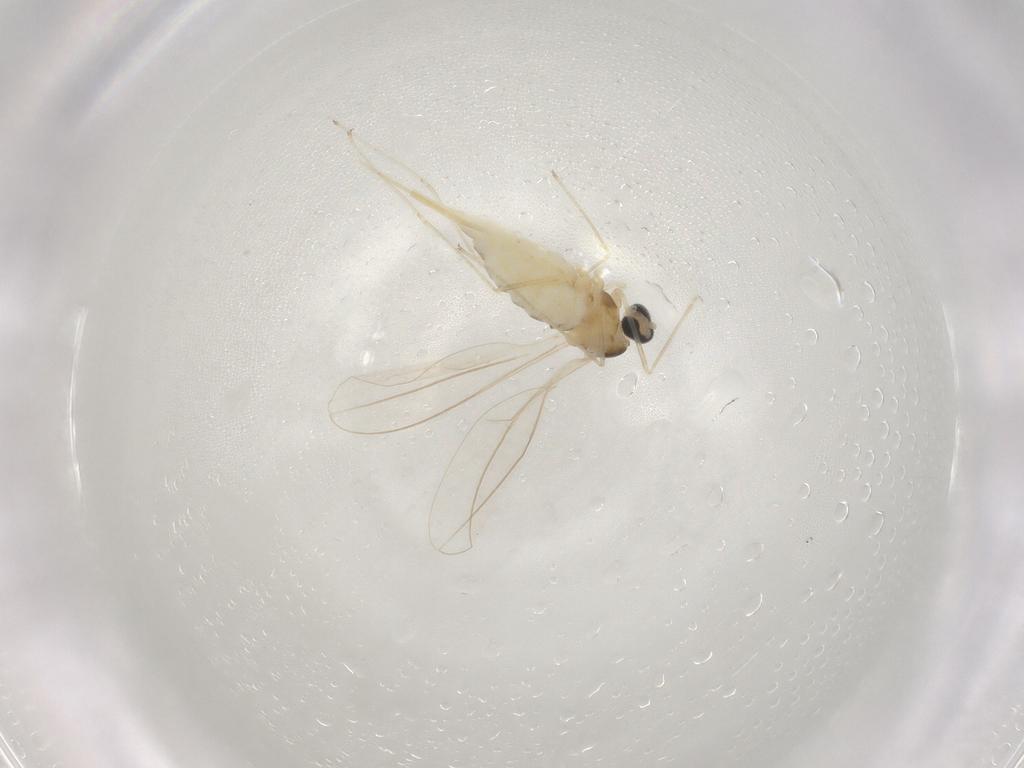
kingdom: Animalia
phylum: Arthropoda
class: Insecta
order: Diptera
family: Cecidomyiidae
